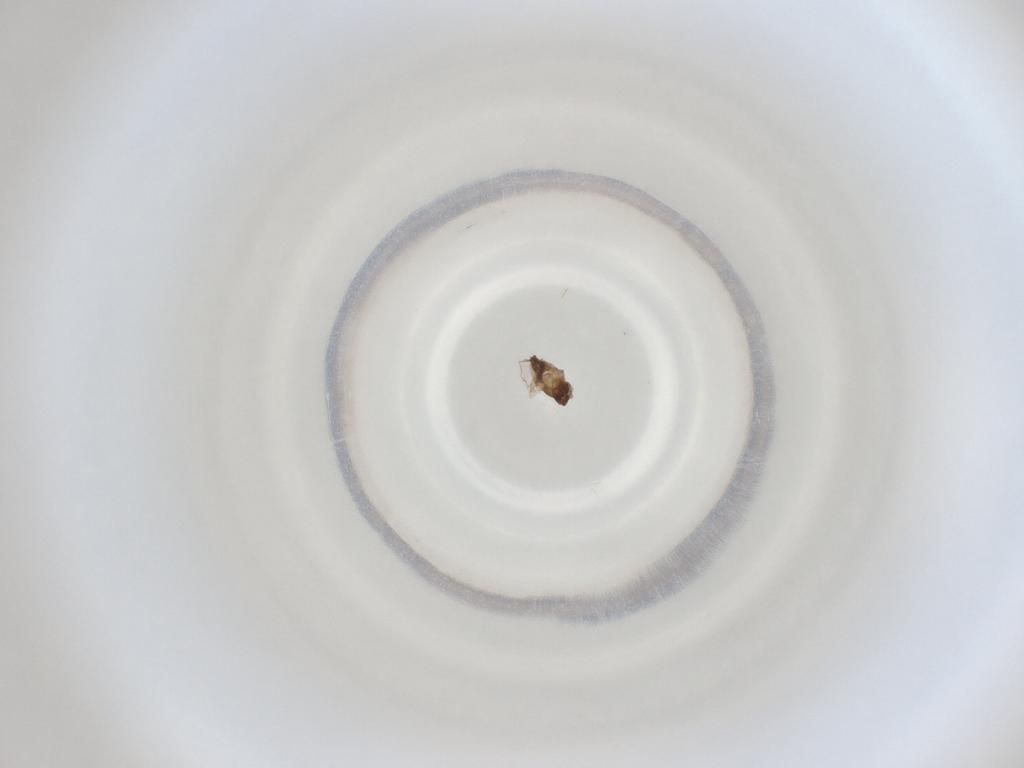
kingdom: Animalia
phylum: Arthropoda
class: Insecta
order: Diptera
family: Cecidomyiidae
